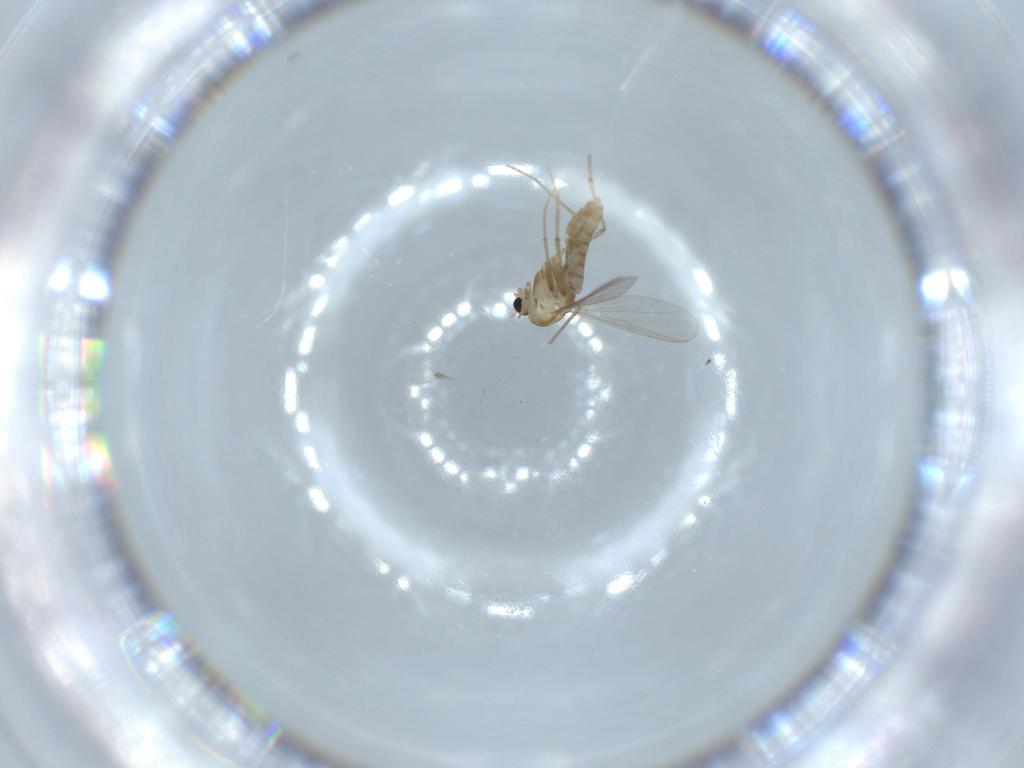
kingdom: Animalia
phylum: Arthropoda
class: Insecta
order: Diptera
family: Chironomidae
